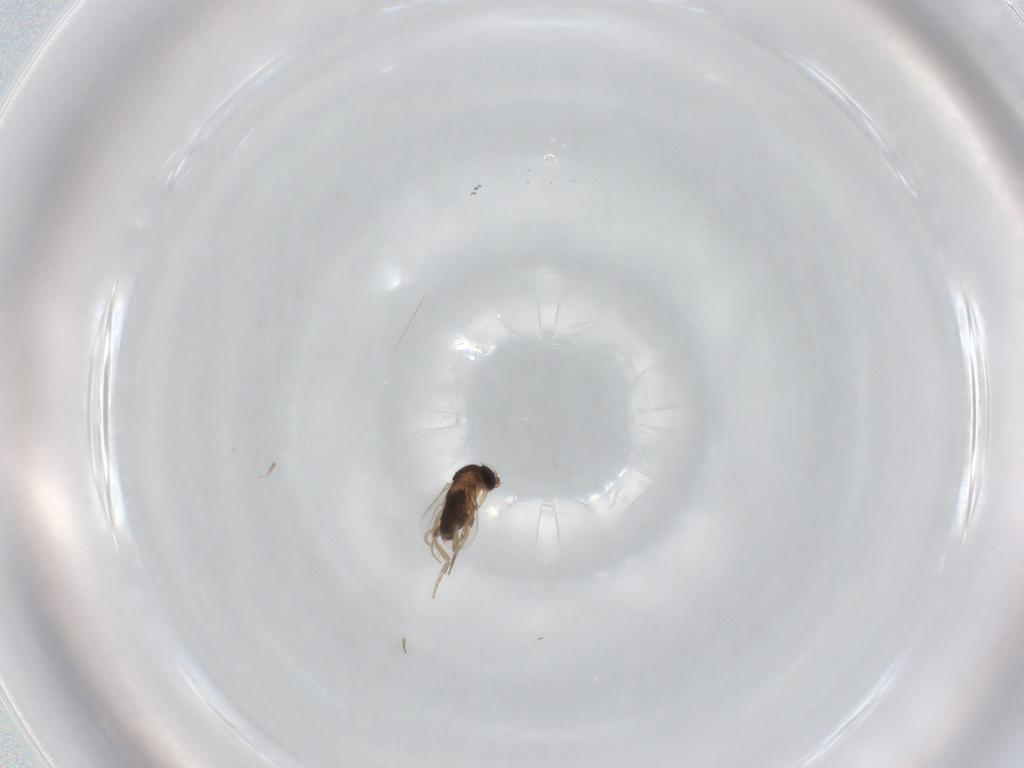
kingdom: Animalia
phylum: Arthropoda
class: Insecta
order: Diptera
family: Phoridae
